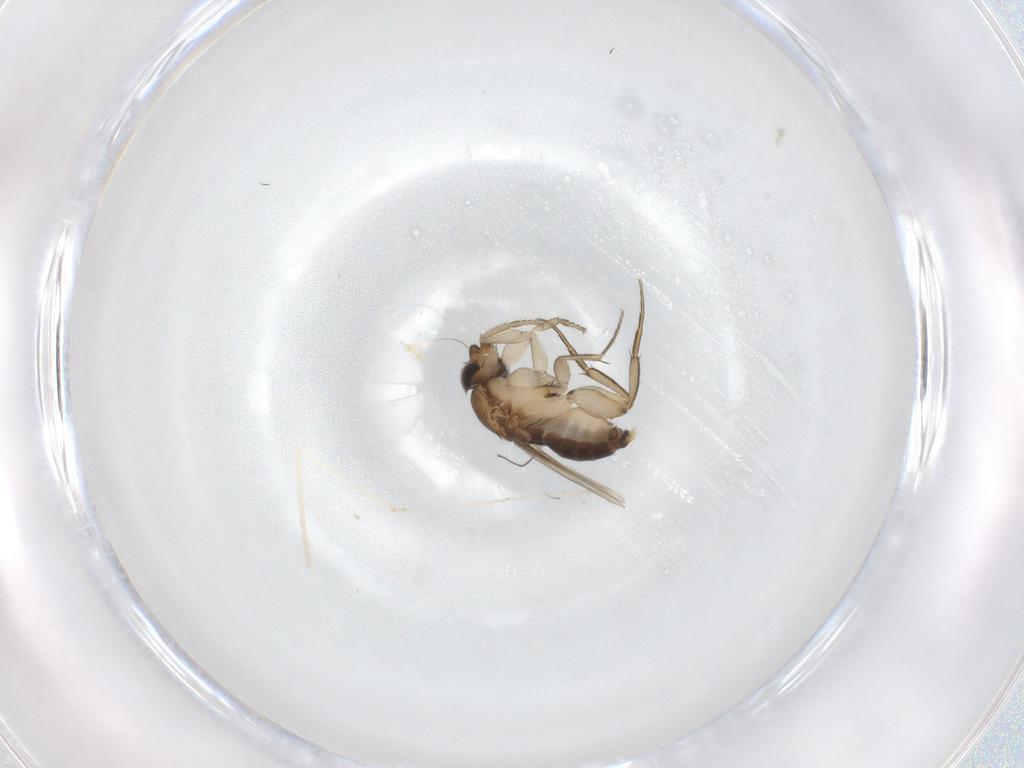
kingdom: Animalia
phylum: Arthropoda
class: Insecta
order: Diptera
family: Phoridae
